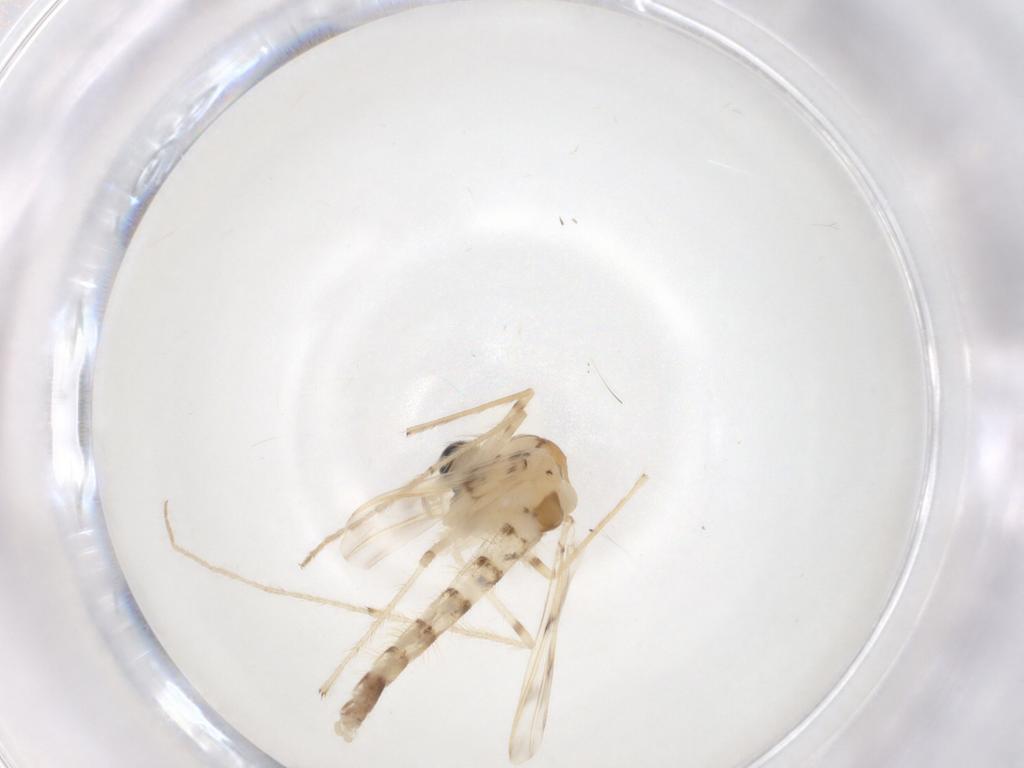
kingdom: Animalia
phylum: Arthropoda
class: Insecta
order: Diptera
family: Chironomidae
